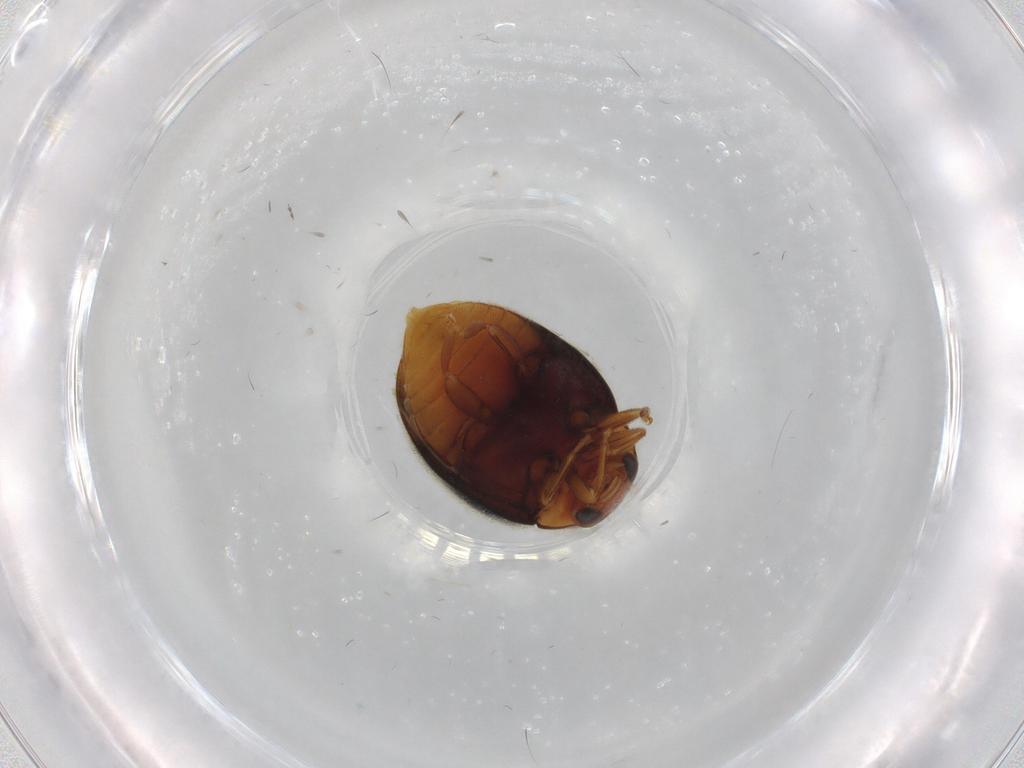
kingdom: Animalia
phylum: Arthropoda
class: Insecta
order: Coleoptera
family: Coccinellidae
